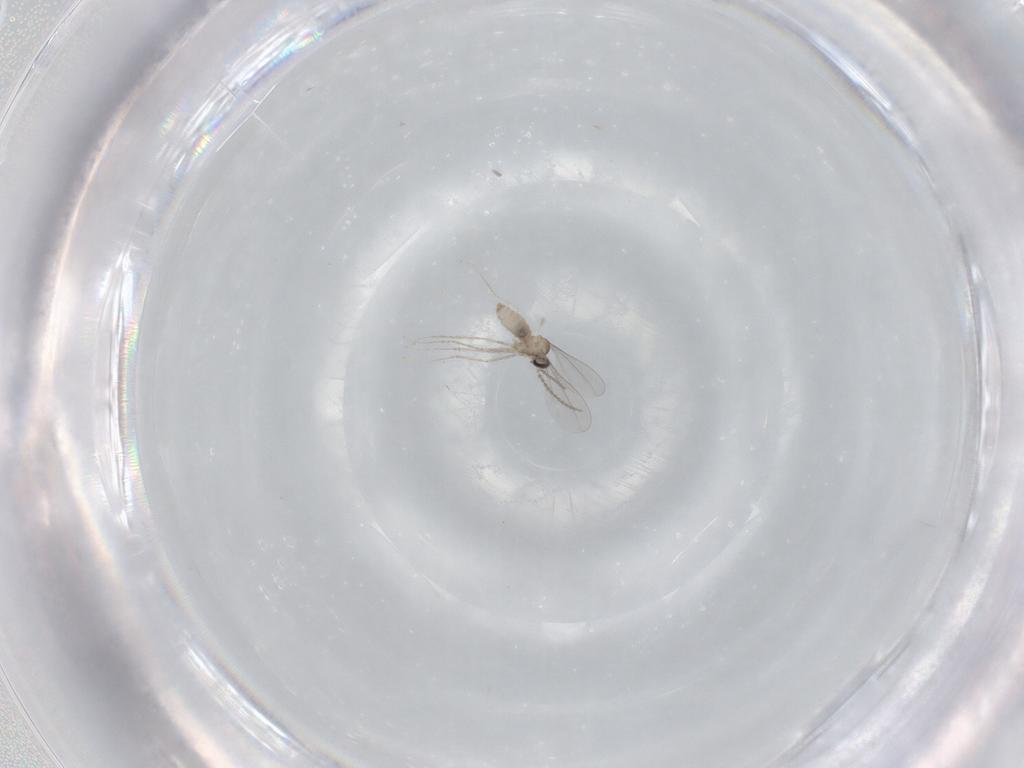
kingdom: Animalia
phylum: Arthropoda
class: Insecta
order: Diptera
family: Cecidomyiidae
